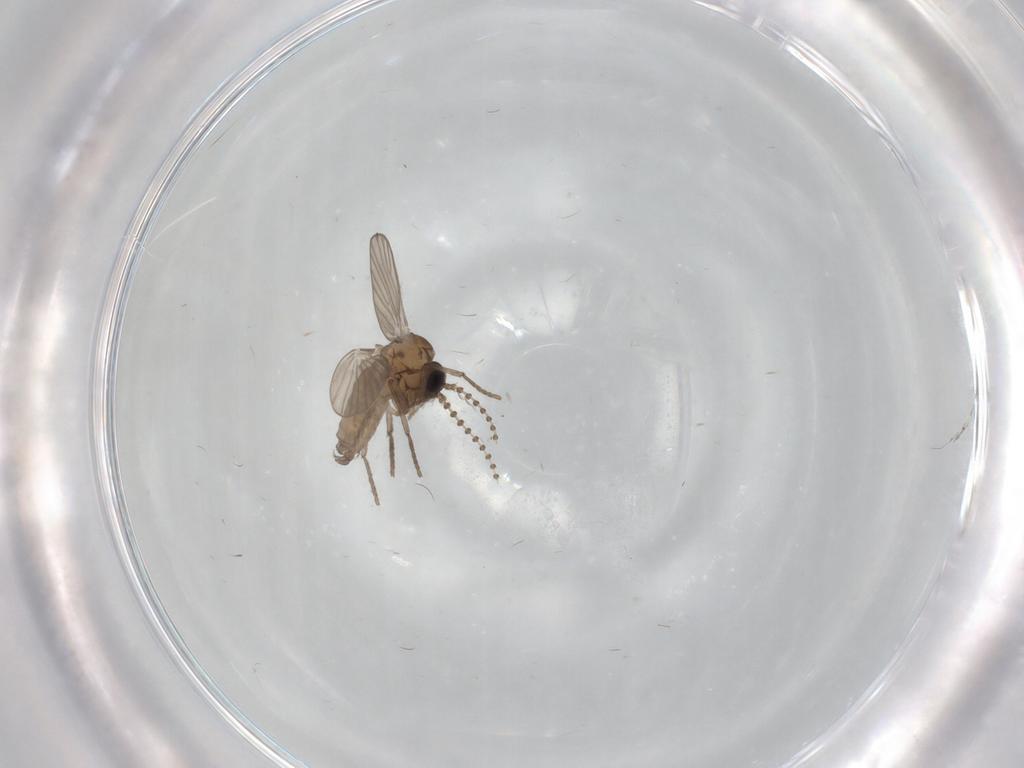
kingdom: Animalia
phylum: Arthropoda
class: Insecta
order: Diptera
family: Psychodidae
